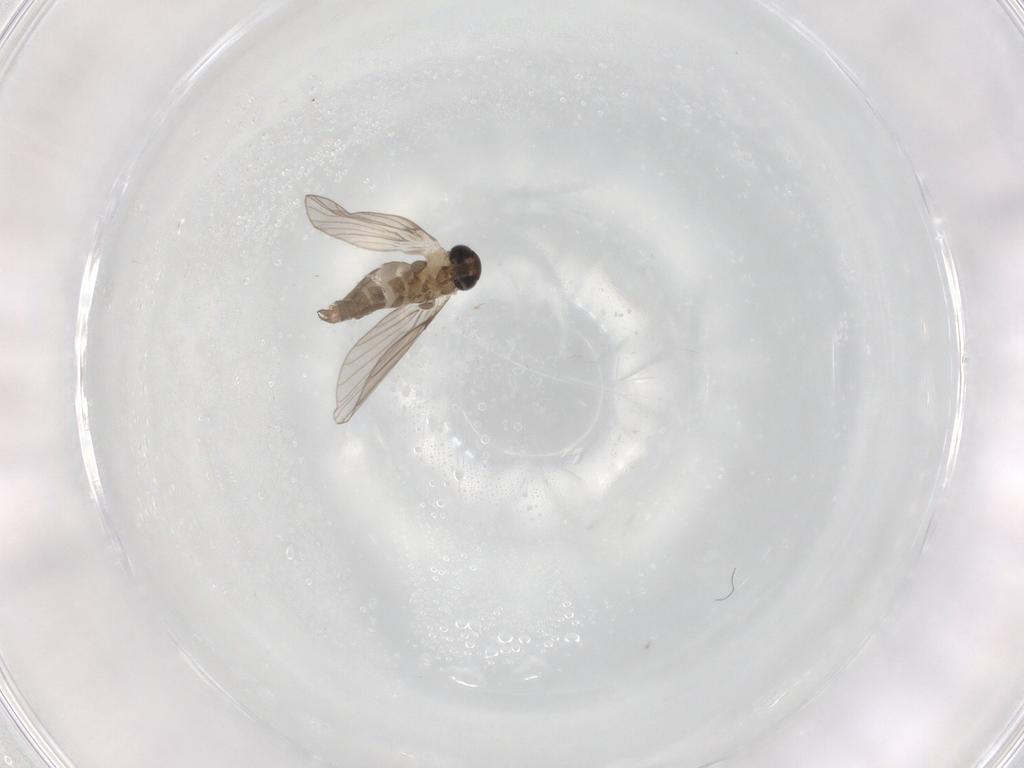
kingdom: Animalia
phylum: Arthropoda
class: Insecta
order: Diptera
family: Psychodidae
